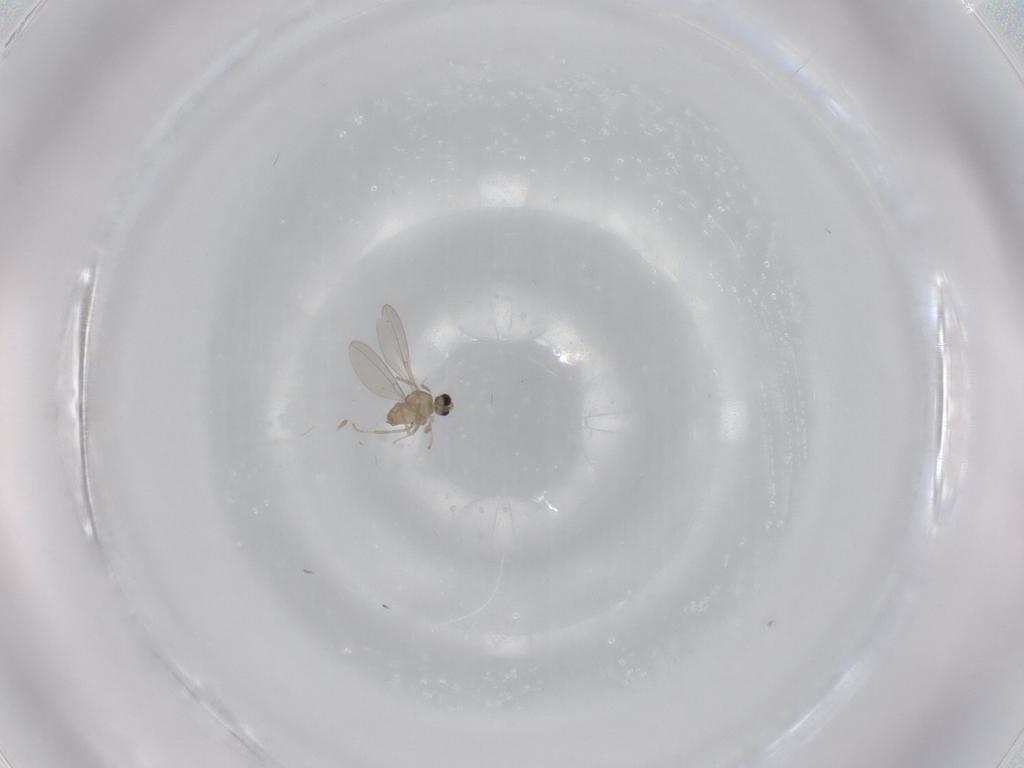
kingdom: Animalia
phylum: Arthropoda
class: Insecta
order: Diptera
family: Cecidomyiidae
